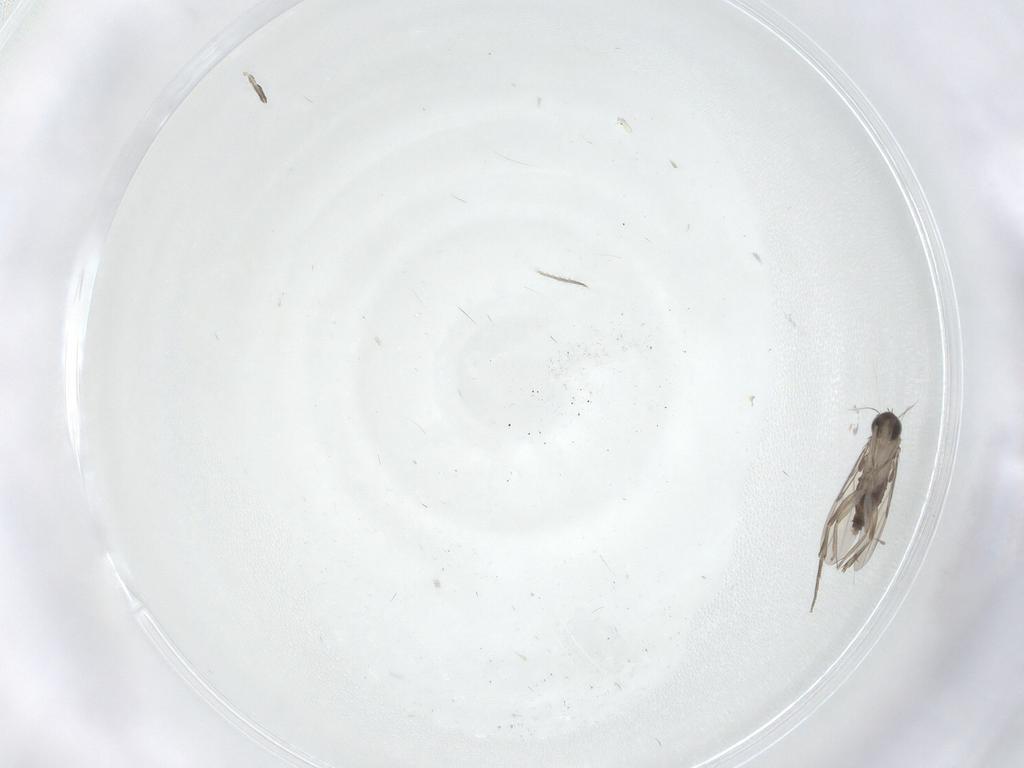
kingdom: Animalia
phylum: Arthropoda
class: Insecta
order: Diptera
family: Phoridae
